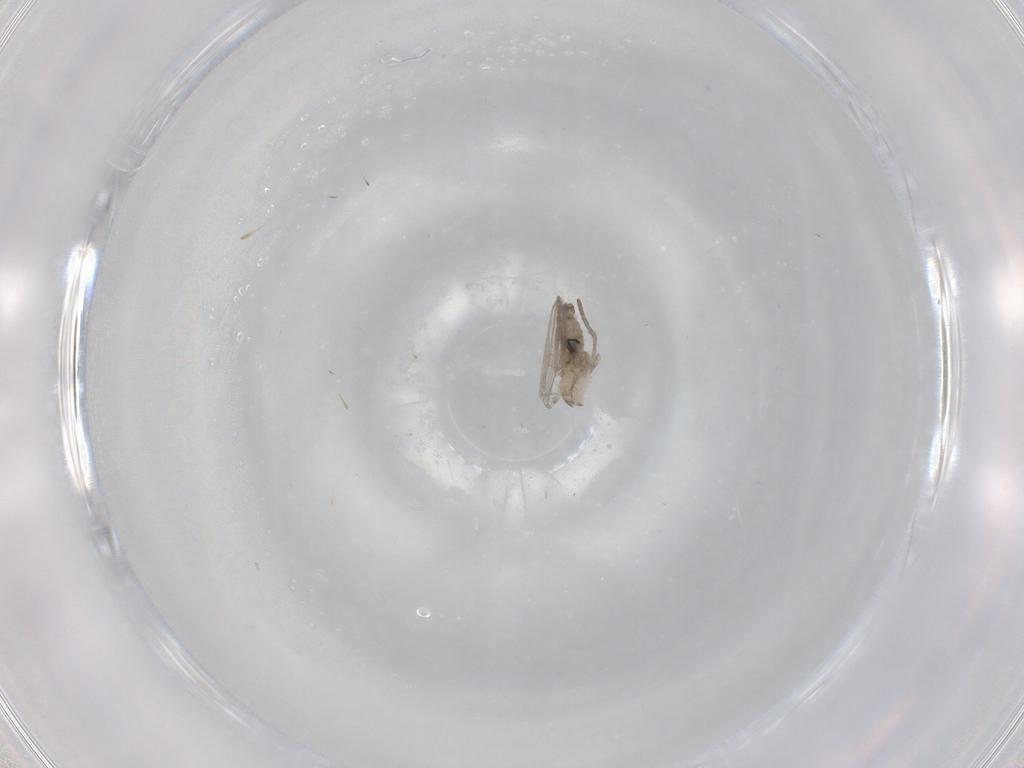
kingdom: Animalia
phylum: Arthropoda
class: Insecta
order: Diptera
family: Psychodidae
